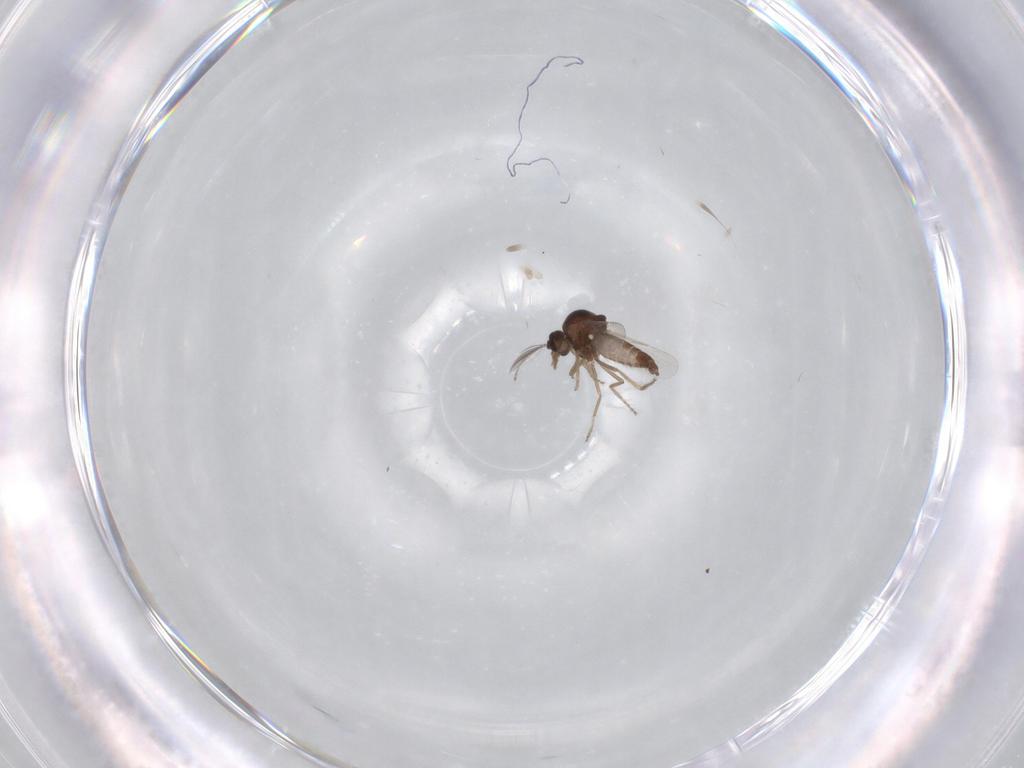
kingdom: Animalia
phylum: Arthropoda
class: Insecta
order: Diptera
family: Ceratopogonidae
